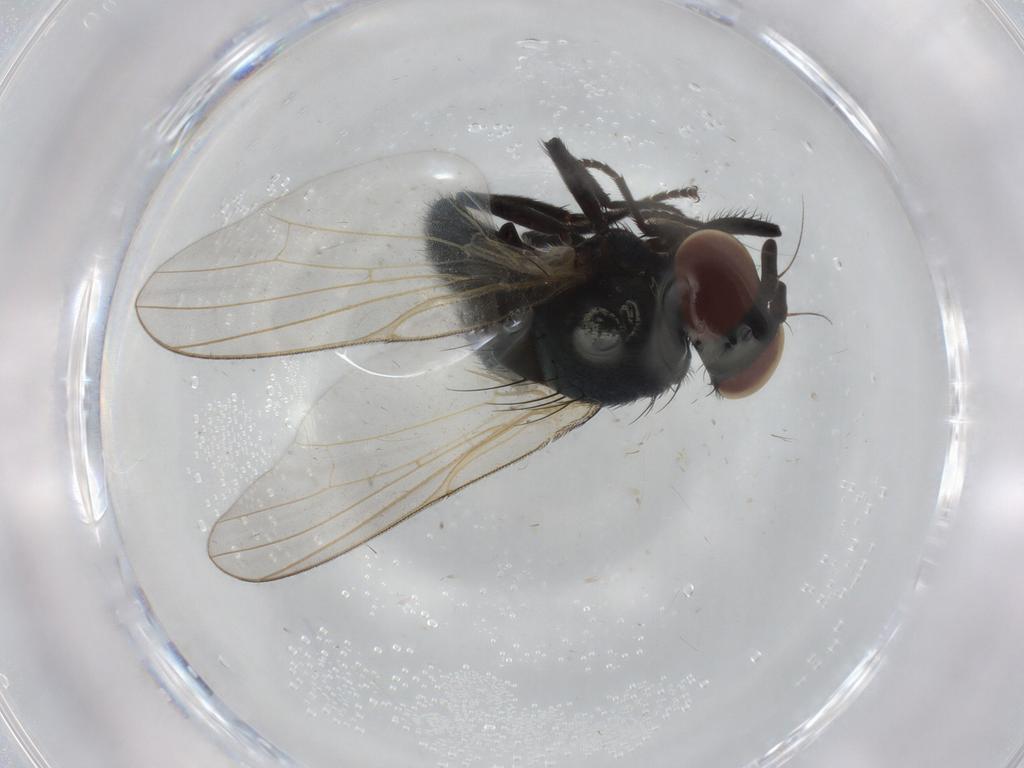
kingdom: Animalia
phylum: Arthropoda
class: Insecta
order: Diptera
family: Lonchaeidae
